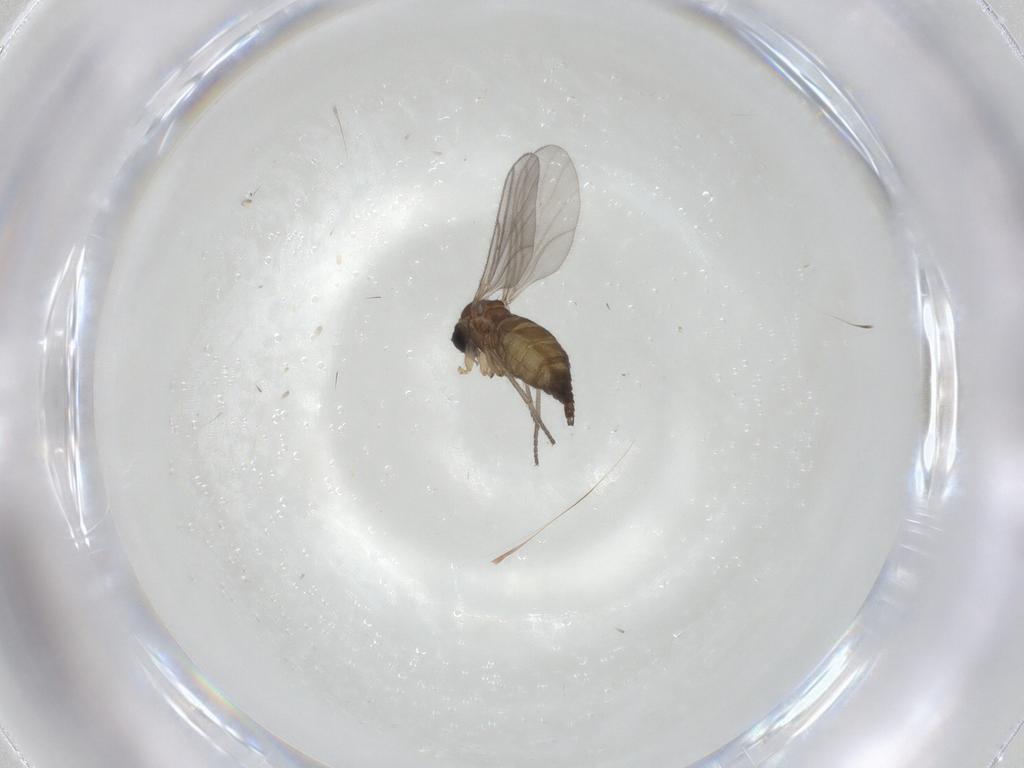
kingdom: Animalia
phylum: Arthropoda
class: Insecta
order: Diptera
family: Sciaridae
